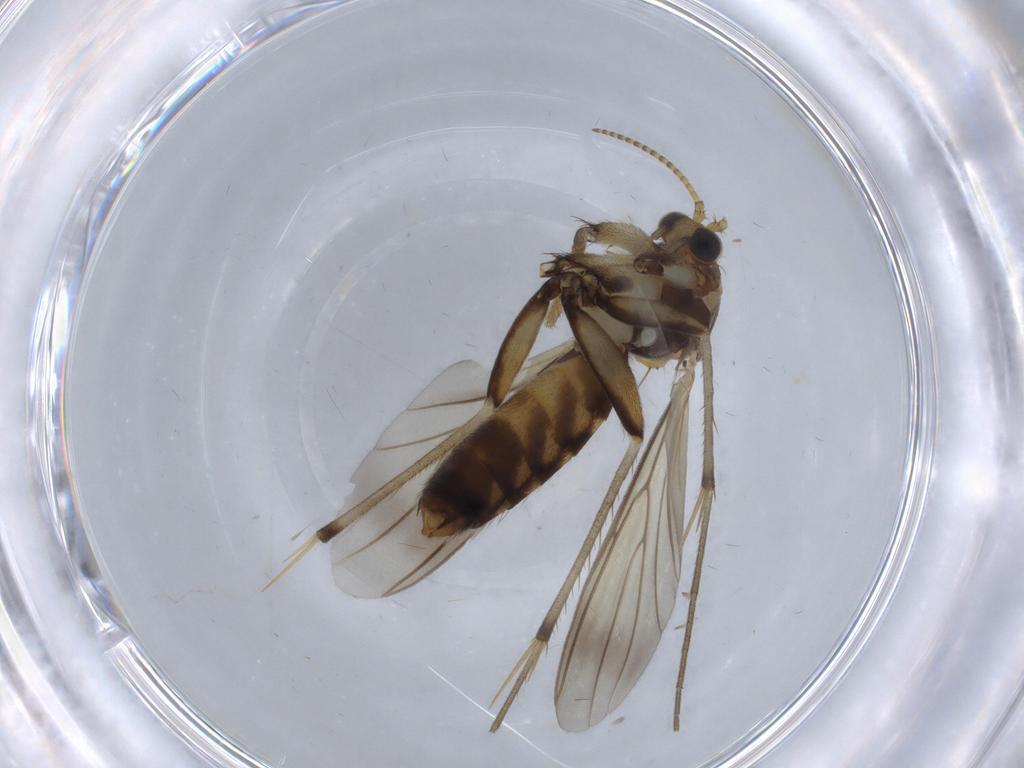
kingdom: Animalia
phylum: Arthropoda
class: Insecta
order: Diptera
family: Mycetophilidae
